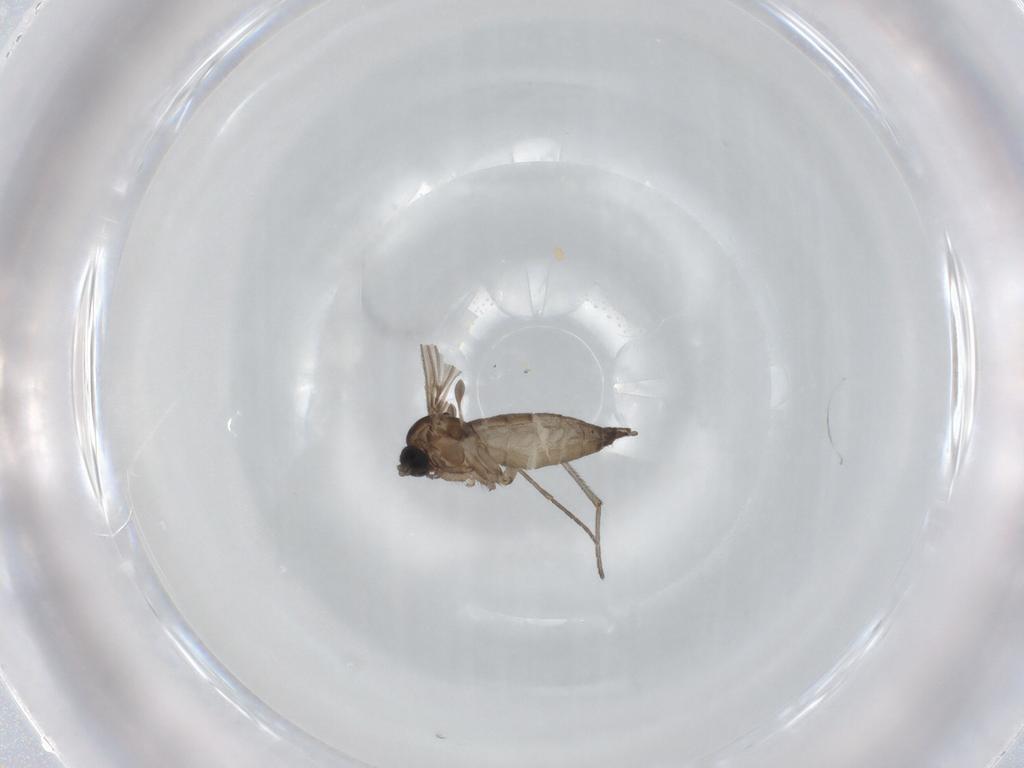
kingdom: Animalia
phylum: Arthropoda
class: Insecta
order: Diptera
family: Sciaridae
